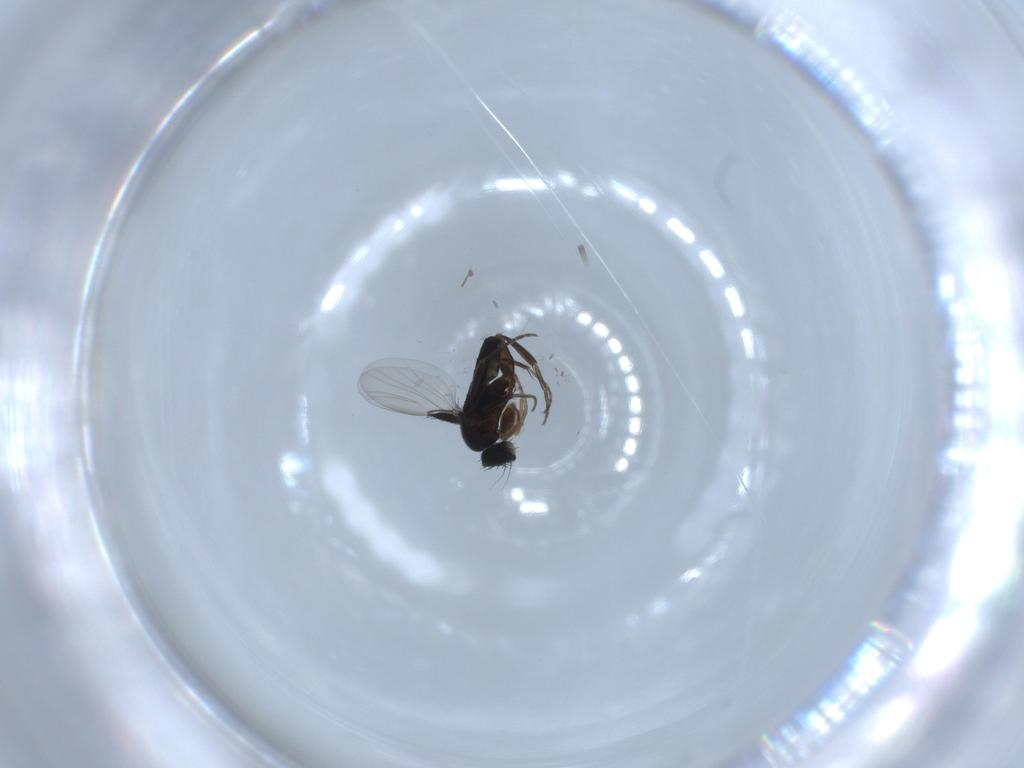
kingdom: Animalia
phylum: Arthropoda
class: Insecta
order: Diptera
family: Phoridae
